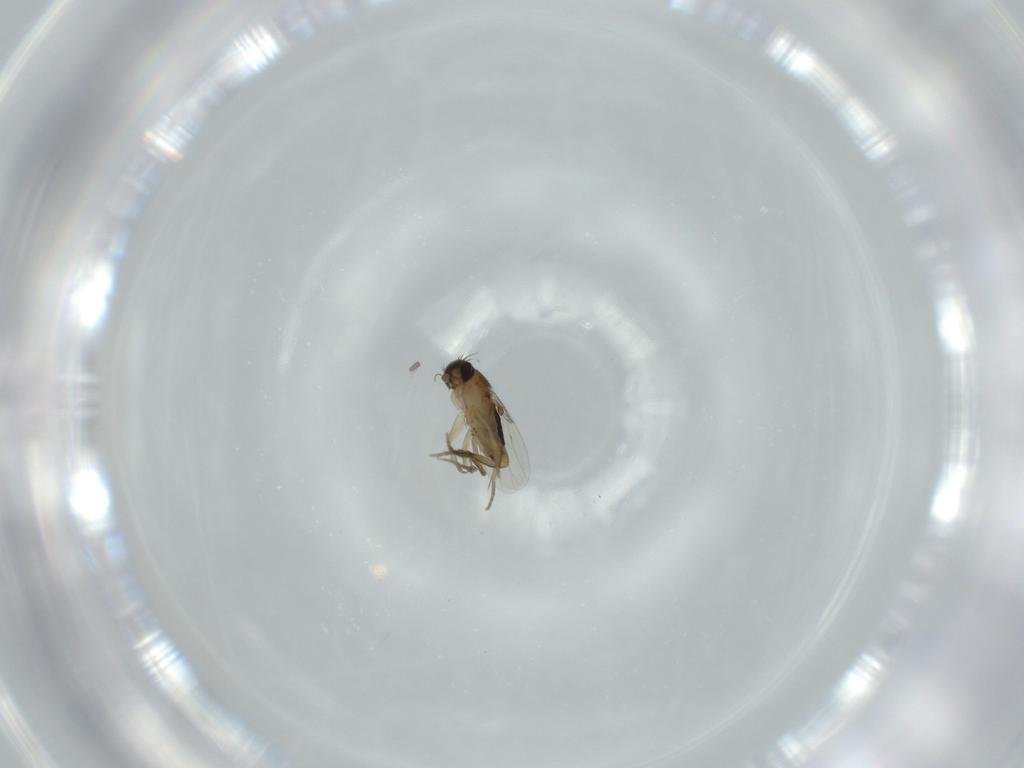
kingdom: Animalia
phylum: Arthropoda
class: Insecta
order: Diptera
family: Phoridae
